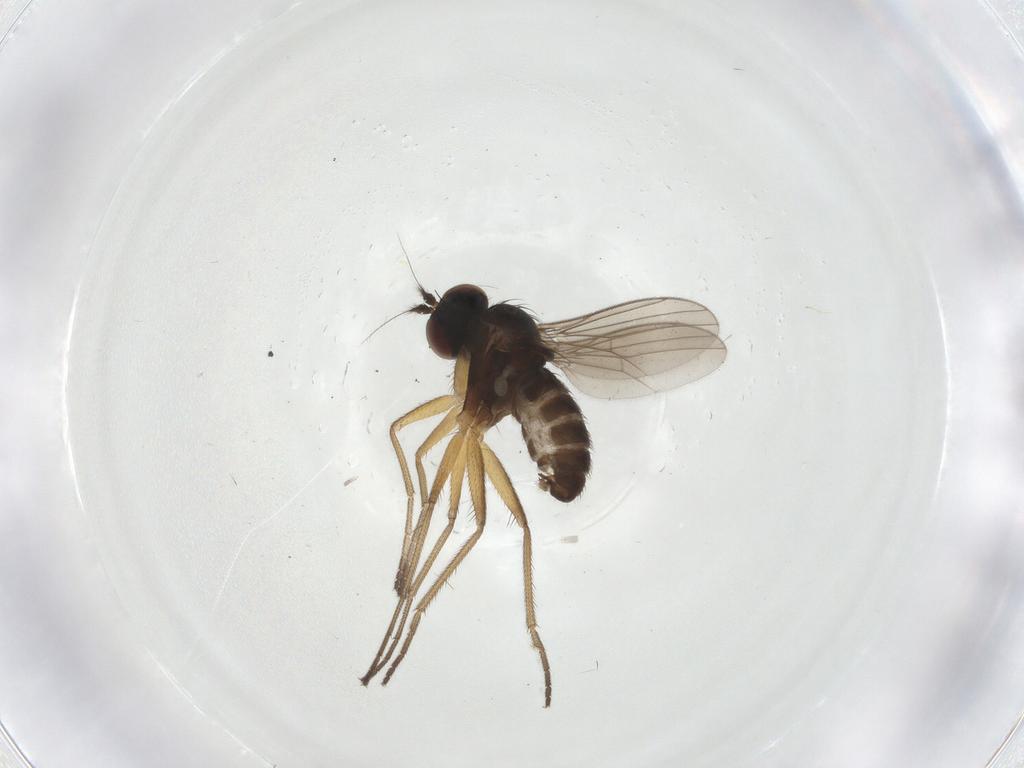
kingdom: Animalia
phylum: Arthropoda
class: Insecta
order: Diptera
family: Dolichopodidae
